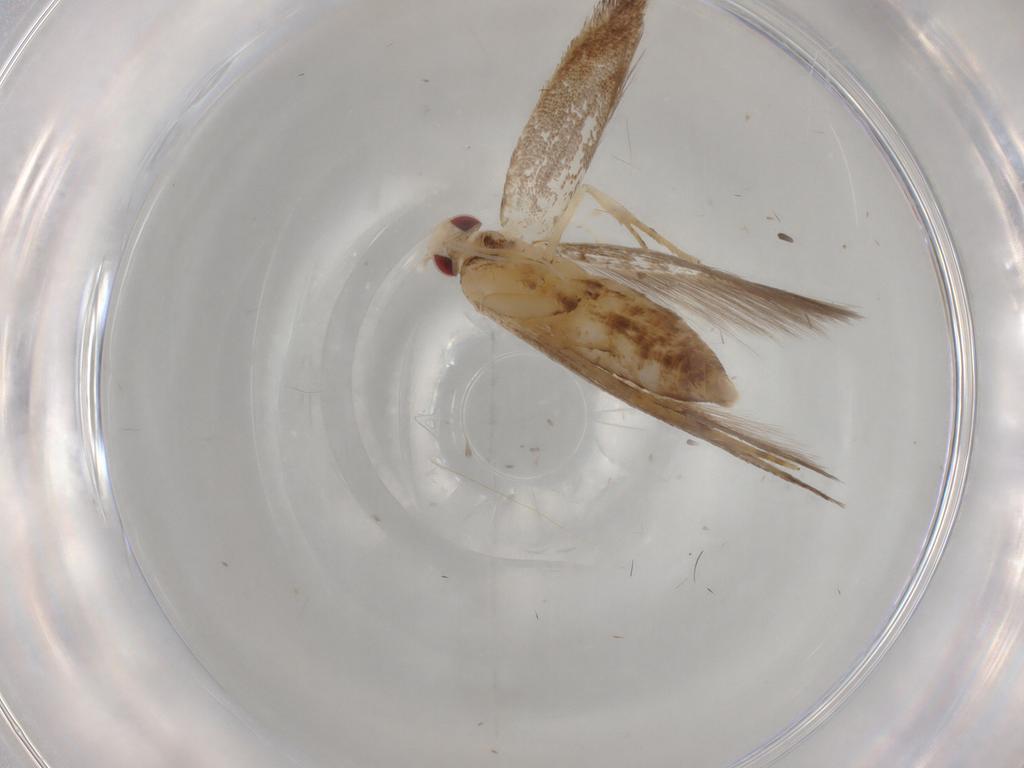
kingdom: Animalia
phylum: Arthropoda
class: Insecta
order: Lepidoptera
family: Cosmopterigidae
